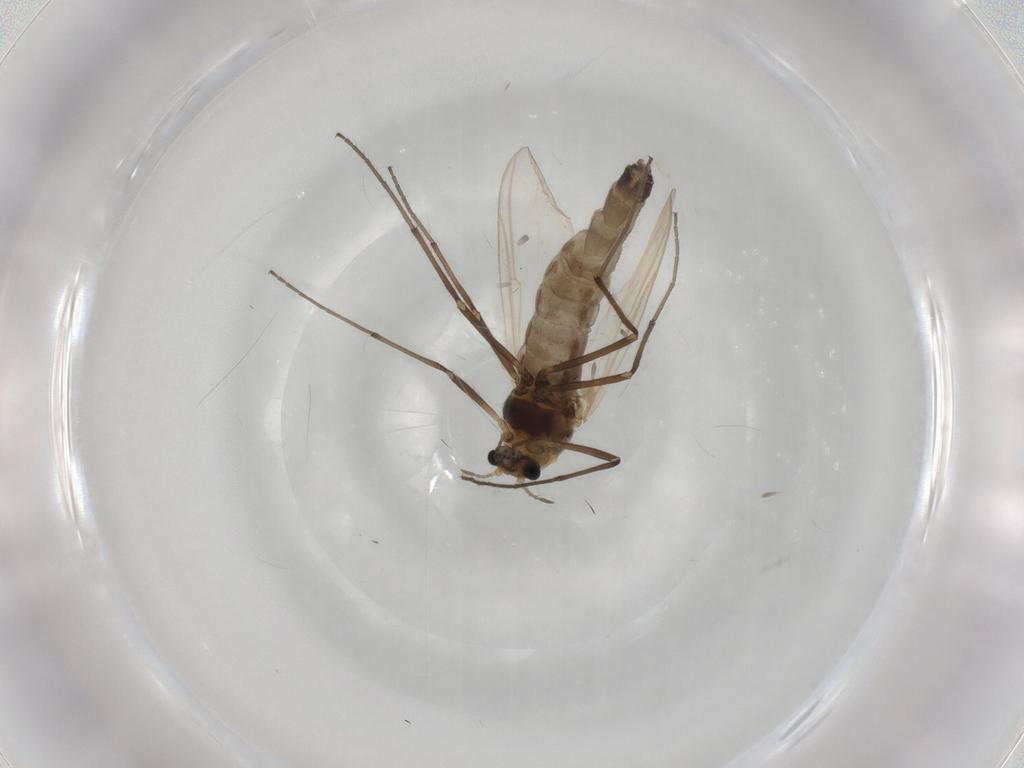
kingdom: Animalia
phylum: Arthropoda
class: Insecta
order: Diptera
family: Chironomidae
